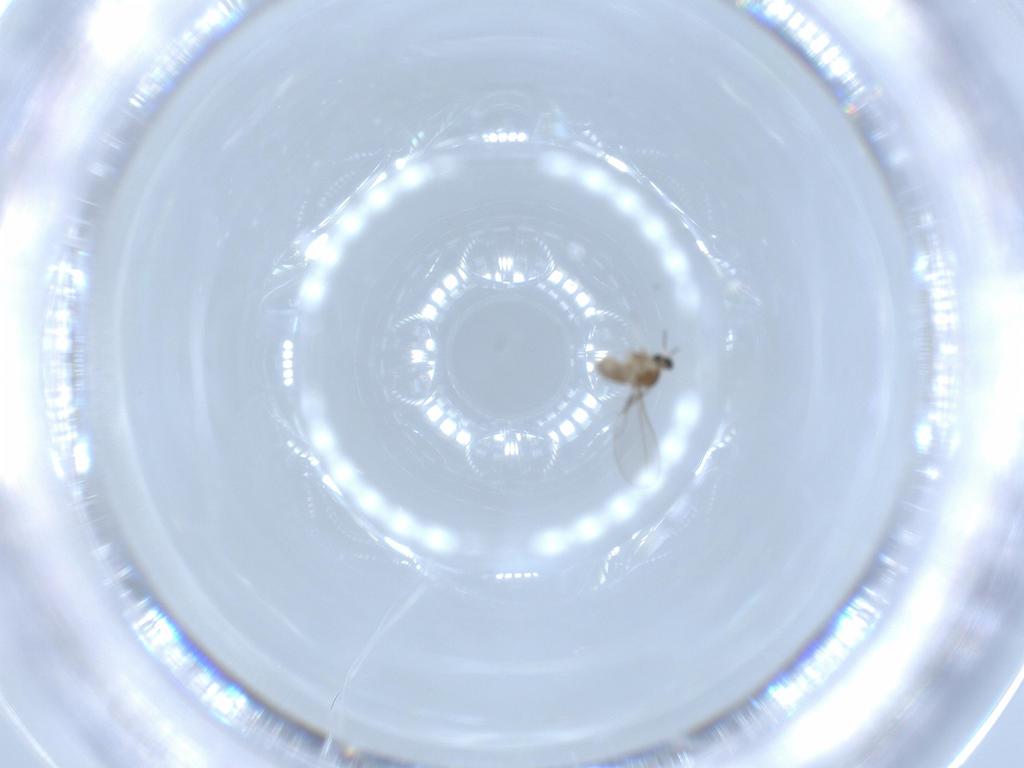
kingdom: Animalia
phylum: Arthropoda
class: Insecta
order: Diptera
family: Cecidomyiidae
